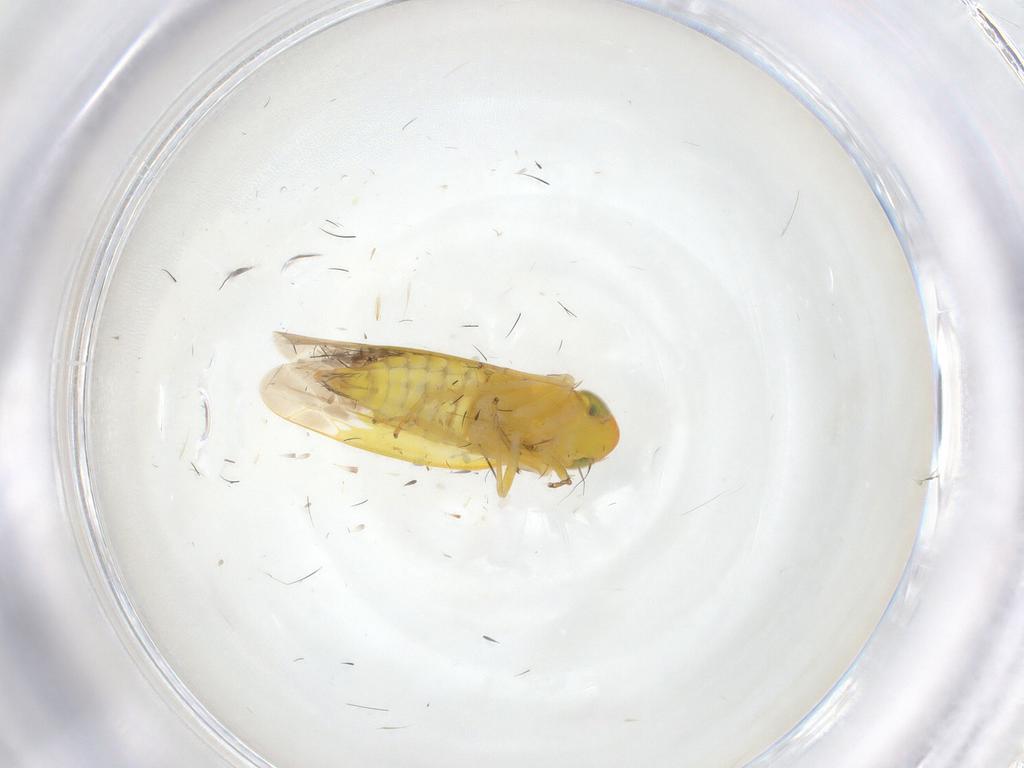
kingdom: Animalia
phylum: Arthropoda
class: Insecta
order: Hemiptera
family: Cicadellidae
